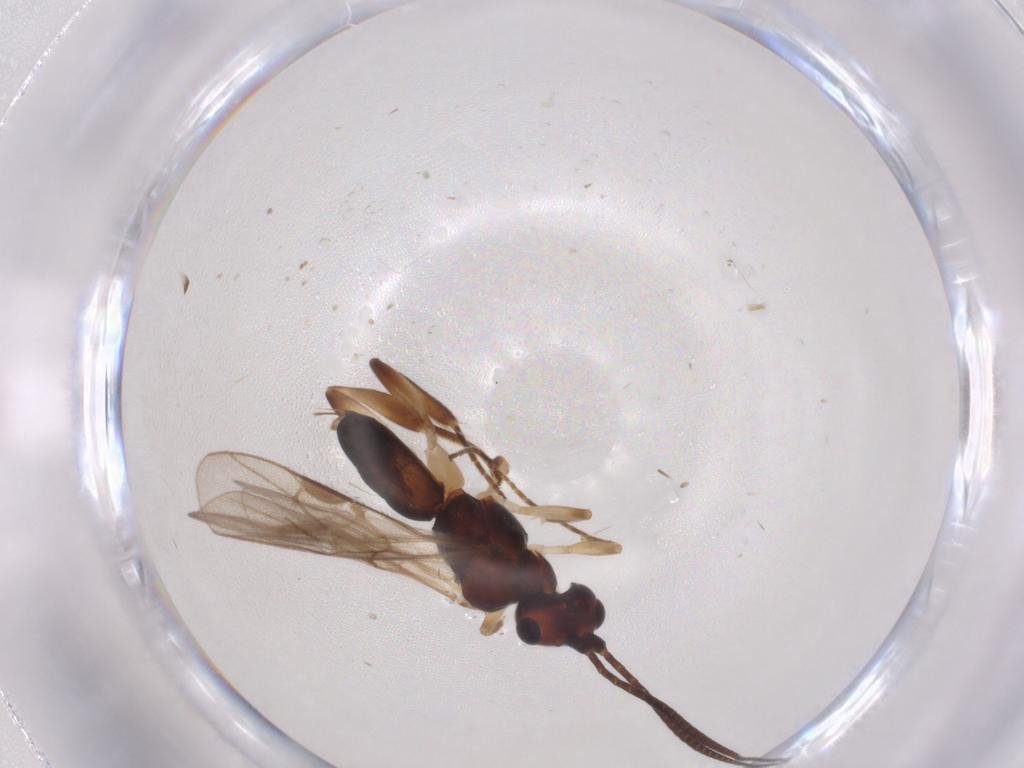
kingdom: Animalia
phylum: Arthropoda
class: Insecta
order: Hymenoptera
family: Braconidae
